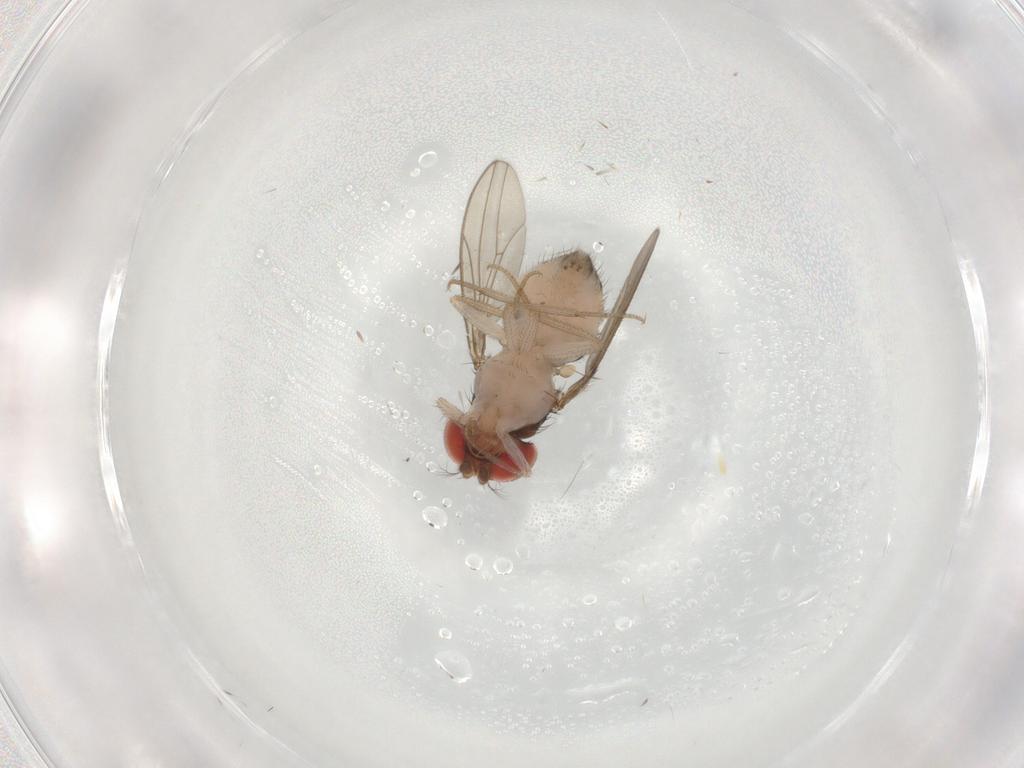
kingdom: Animalia
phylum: Arthropoda
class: Insecta
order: Diptera
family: Drosophilidae
